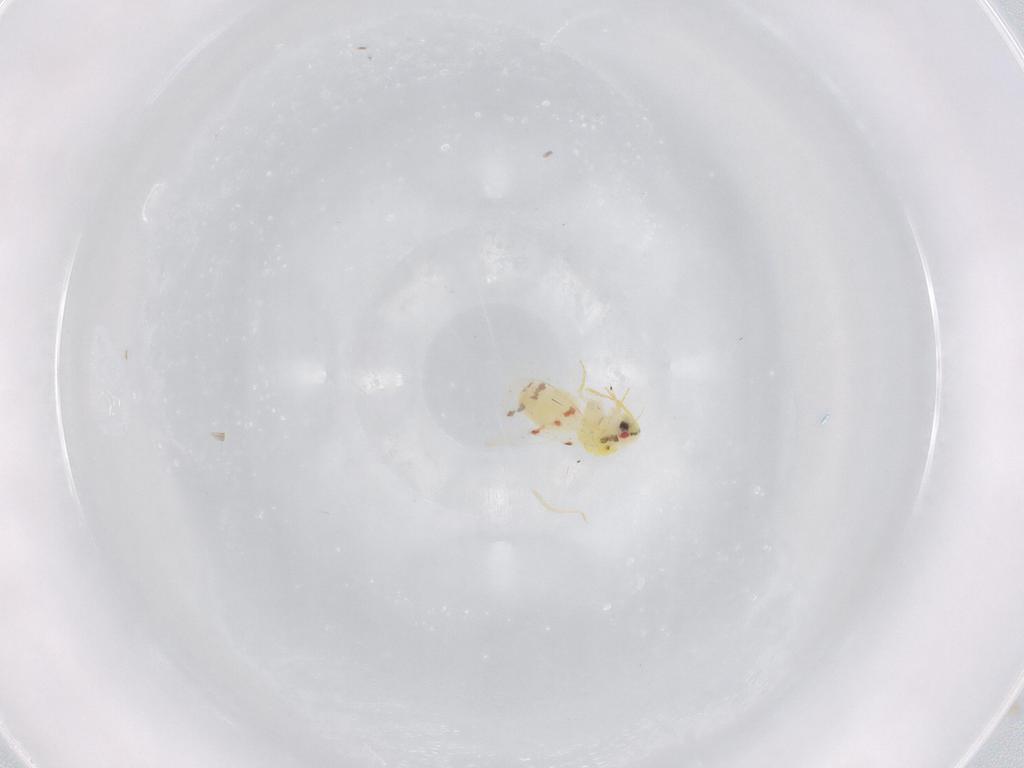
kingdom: Animalia
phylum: Arthropoda
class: Insecta
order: Hemiptera
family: Aleyrodidae
